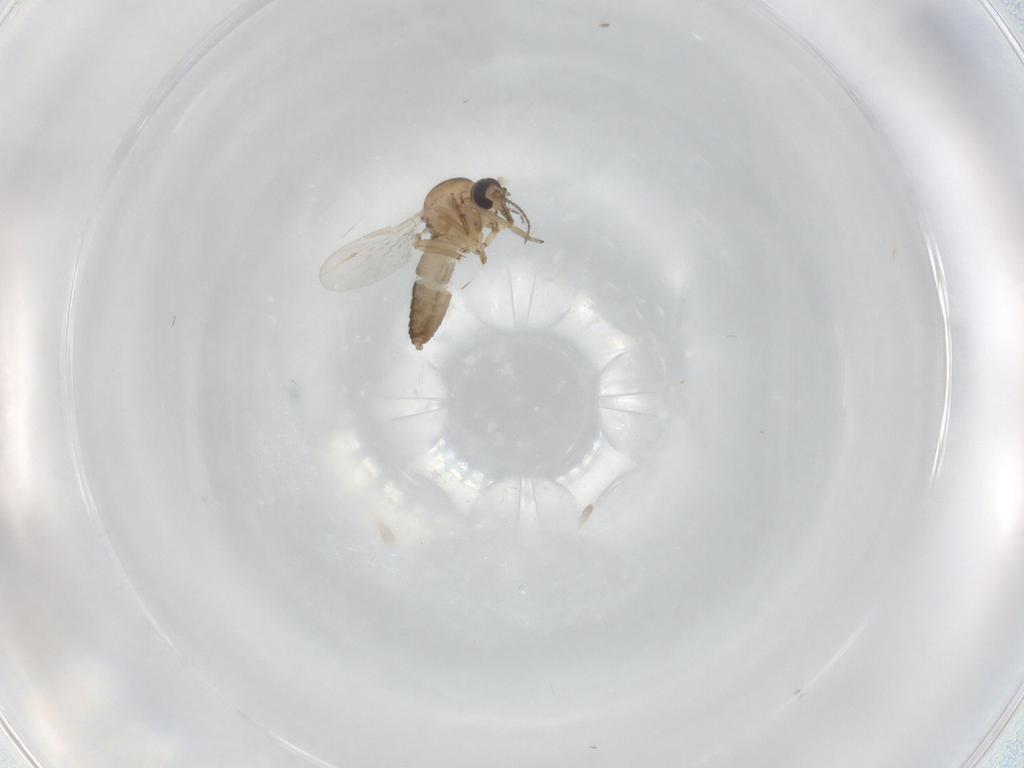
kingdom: Animalia
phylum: Arthropoda
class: Insecta
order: Diptera
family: Ceratopogonidae
